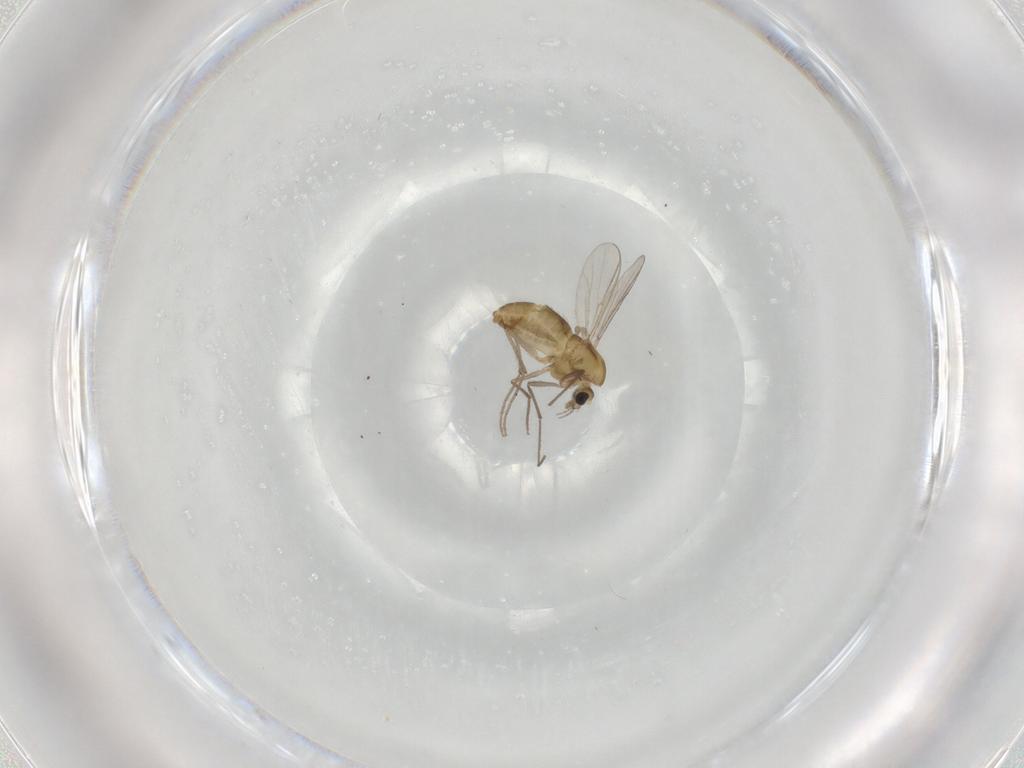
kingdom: Animalia
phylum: Arthropoda
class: Insecta
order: Diptera
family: Chironomidae
